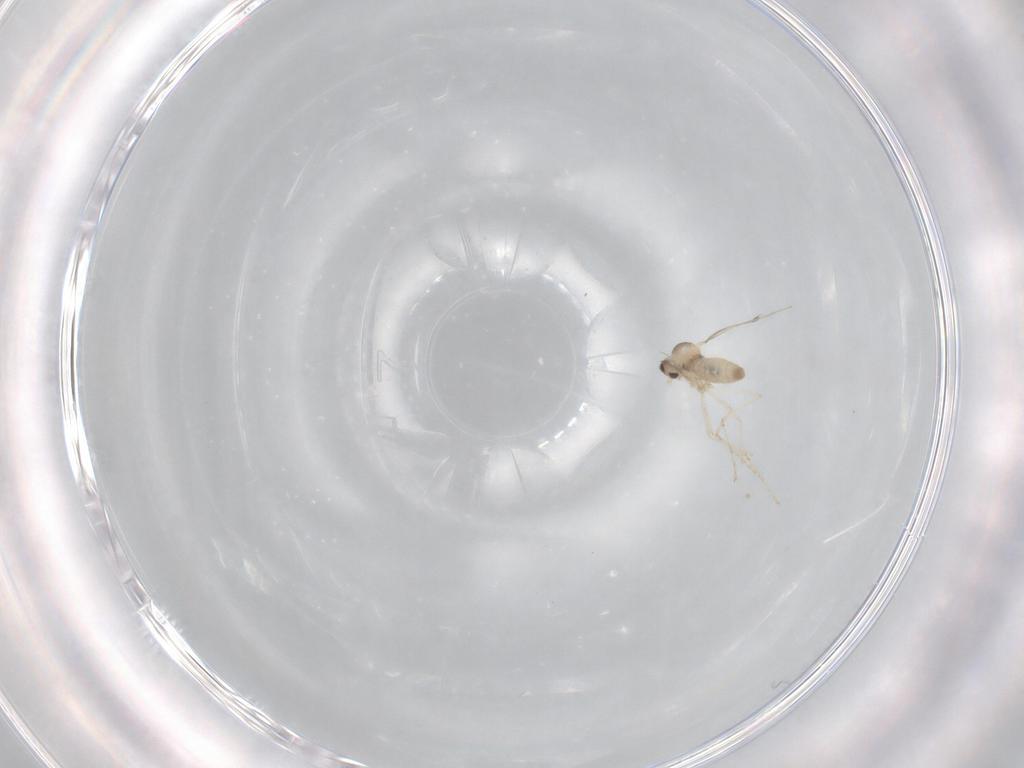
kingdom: Animalia
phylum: Arthropoda
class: Insecta
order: Diptera
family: Cecidomyiidae
